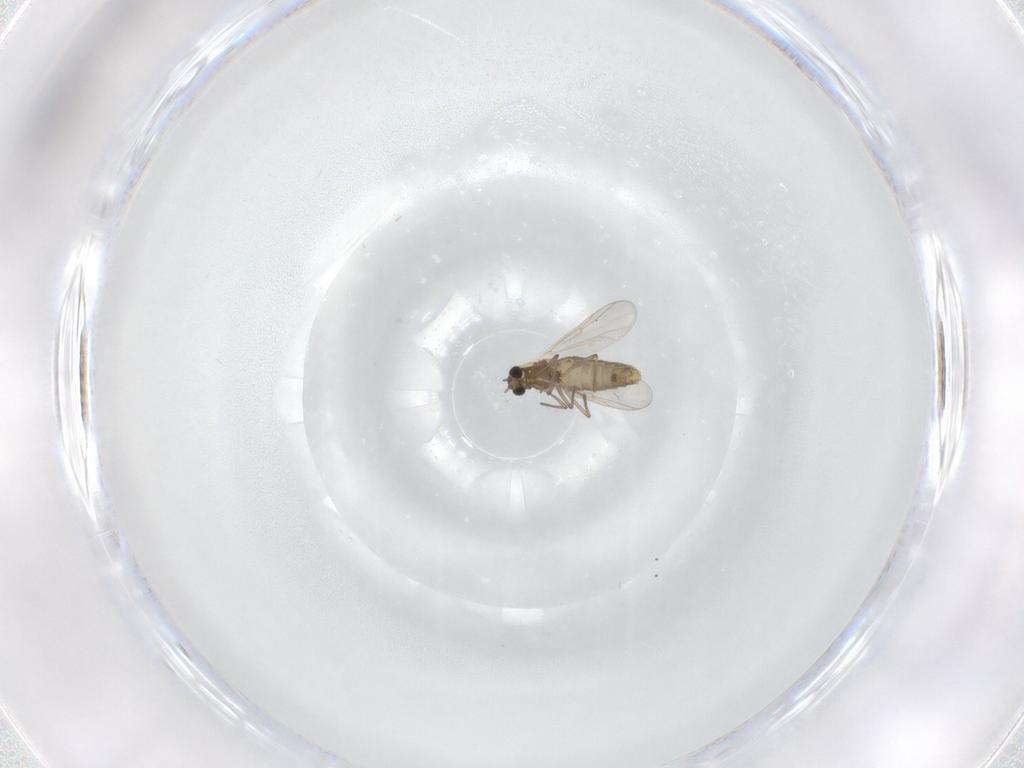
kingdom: Animalia
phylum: Arthropoda
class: Insecta
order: Diptera
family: Chironomidae
